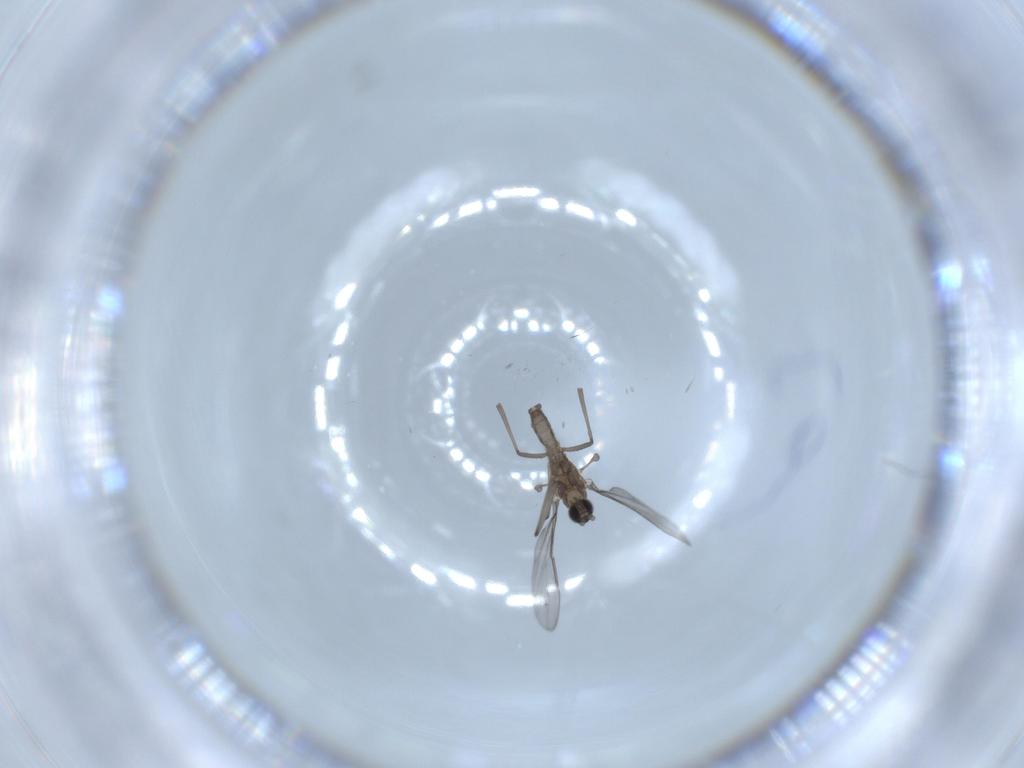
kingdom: Animalia
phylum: Arthropoda
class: Insecta
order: Diptera
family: Cecidomyiidae
